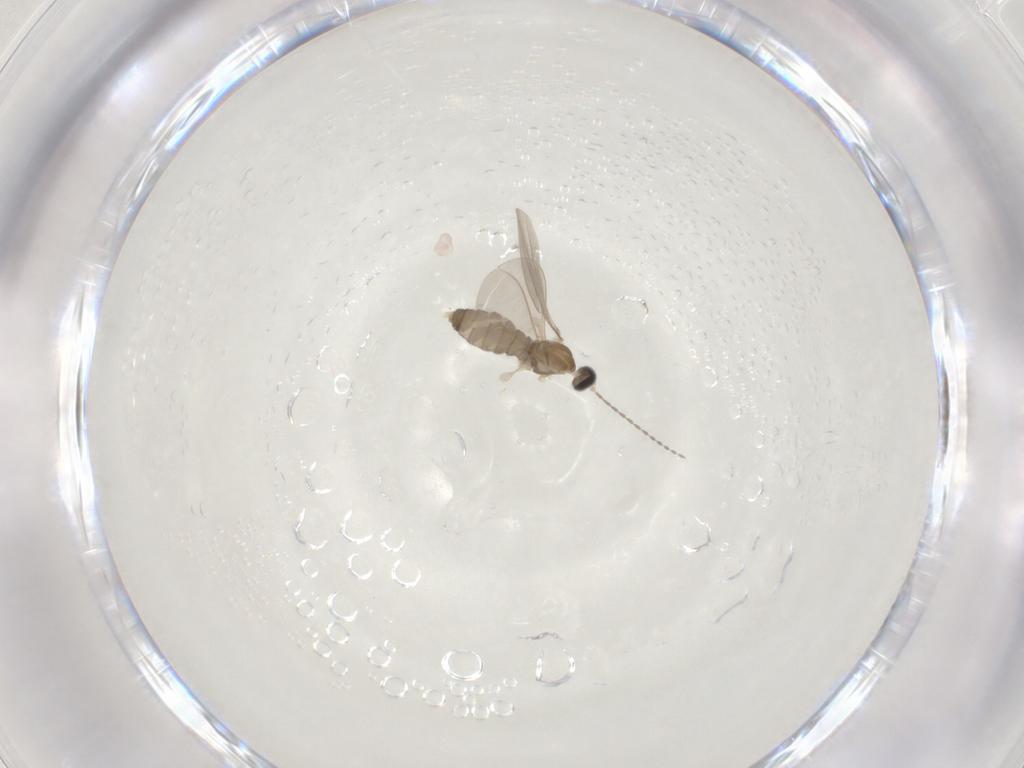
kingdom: Animalia
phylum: Arthropoda
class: Insecta
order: Diptera
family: Cecidomyiidae
